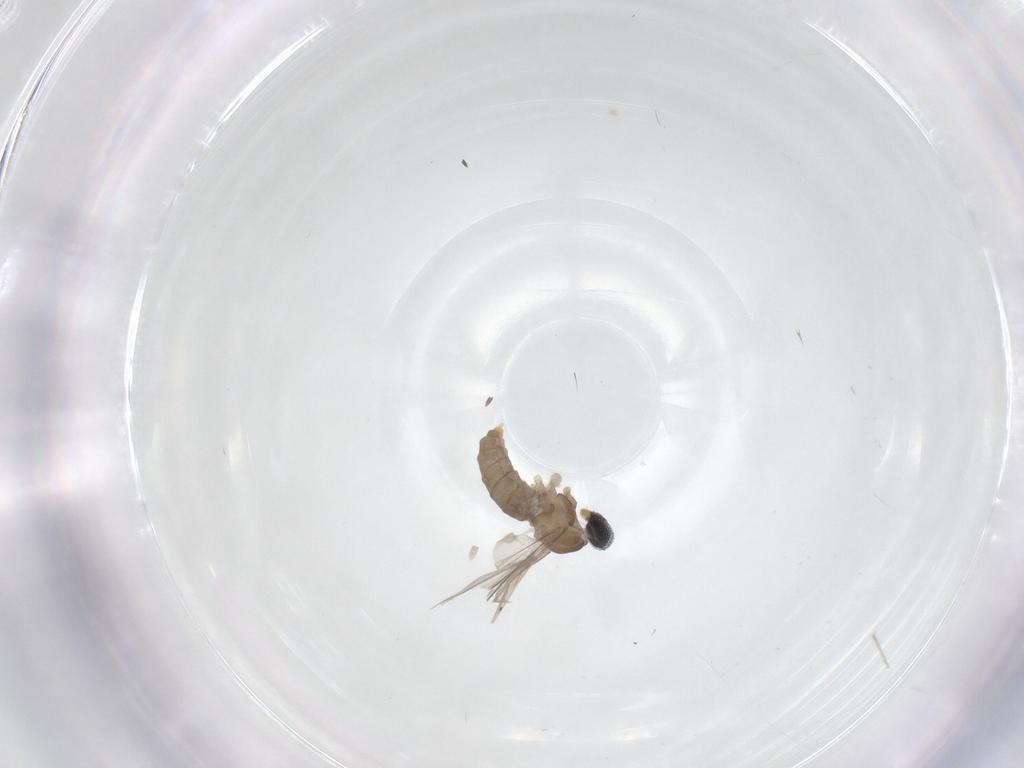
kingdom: Animalia
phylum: Arthropoda
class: Insecta
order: Diptera
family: Cecidomyiidae
